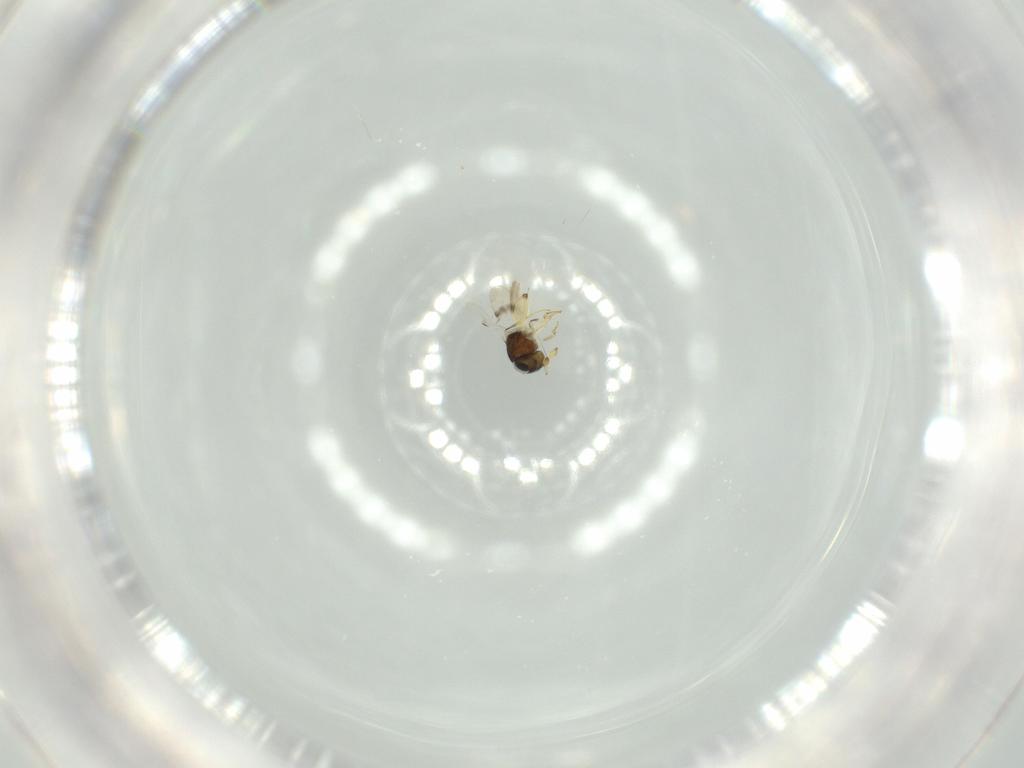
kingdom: Animalia
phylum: Arthropoda
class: Insecta
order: Hymenoptera
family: Scelionidae
